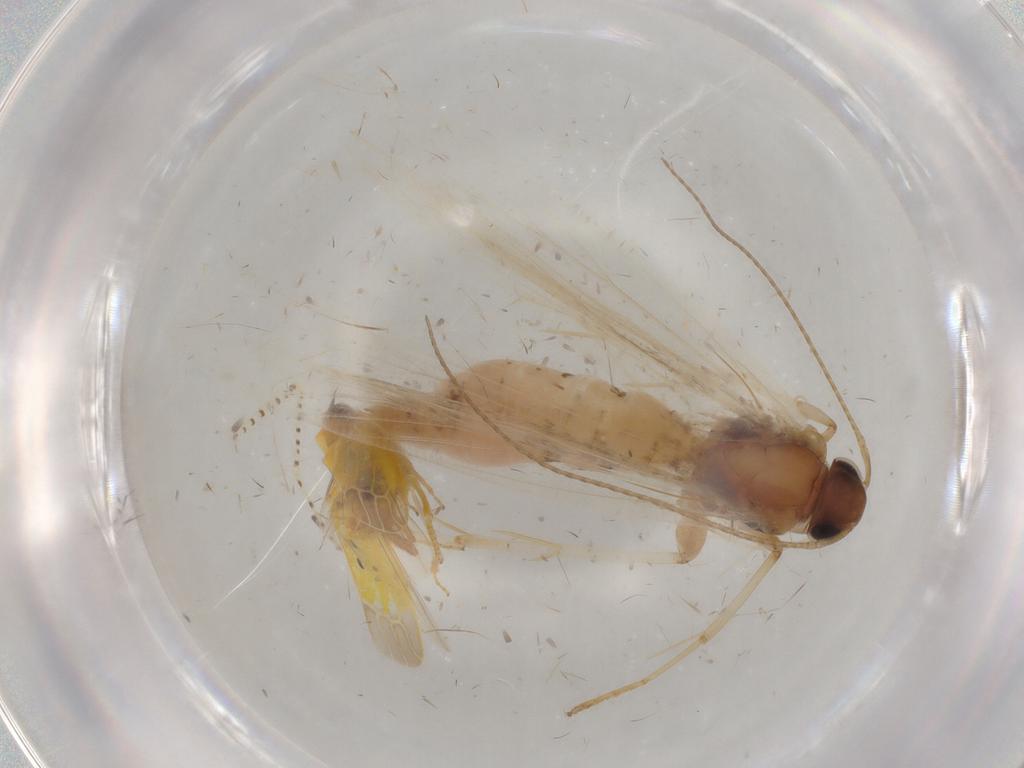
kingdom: Animalia
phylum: Arthropoda
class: Insecta
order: Lepidoptera
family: Gelechiidae
